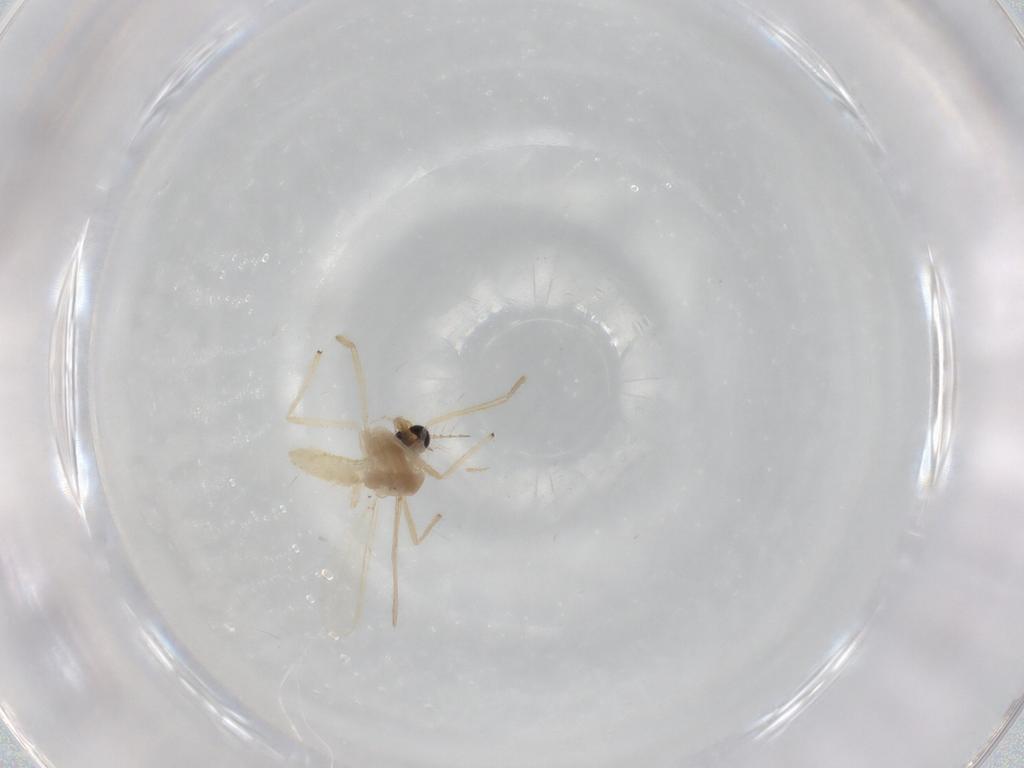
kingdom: Animalia
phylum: Arthropoda
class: Insecta
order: Diptera
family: Chironomidae
